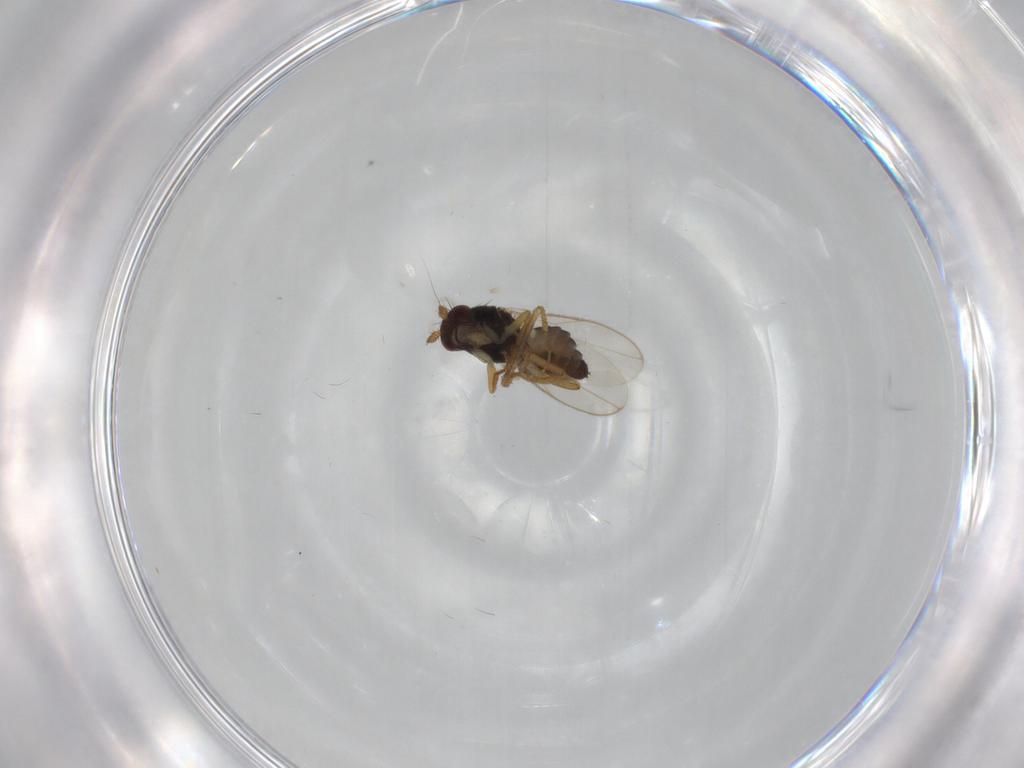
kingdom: Animalia
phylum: Arthropoda
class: Insecta
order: Diptera
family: Sphaeroceridae
